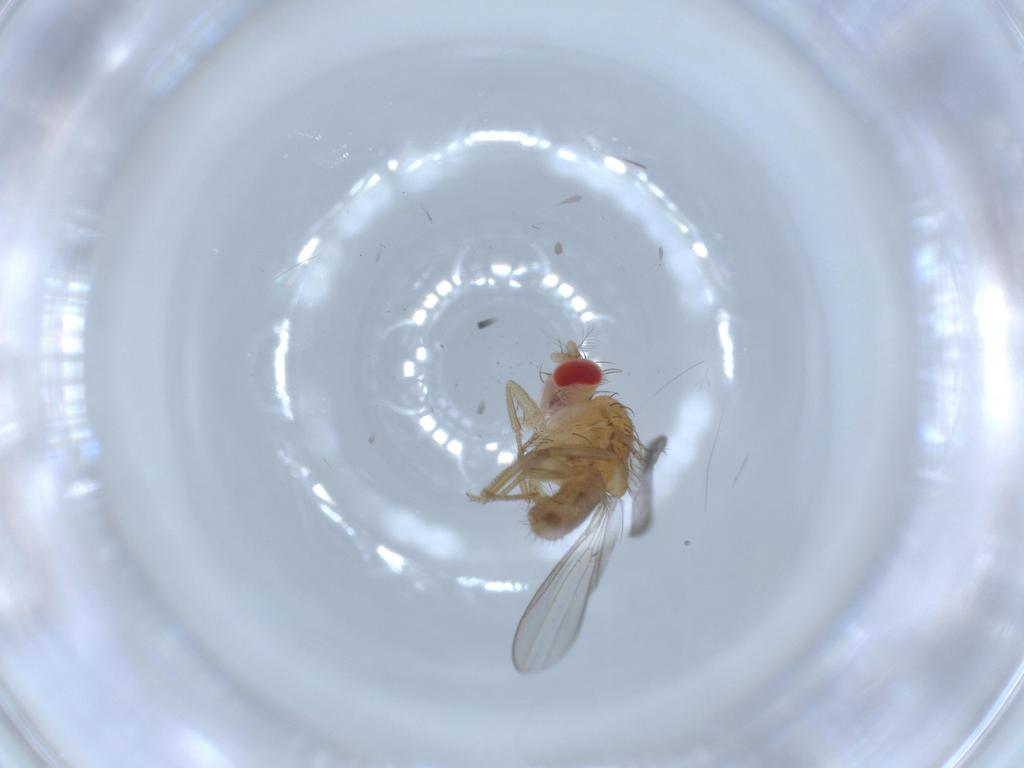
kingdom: Animalia
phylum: Arthropoda
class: Insecta
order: Diptera
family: Drosophilidae
